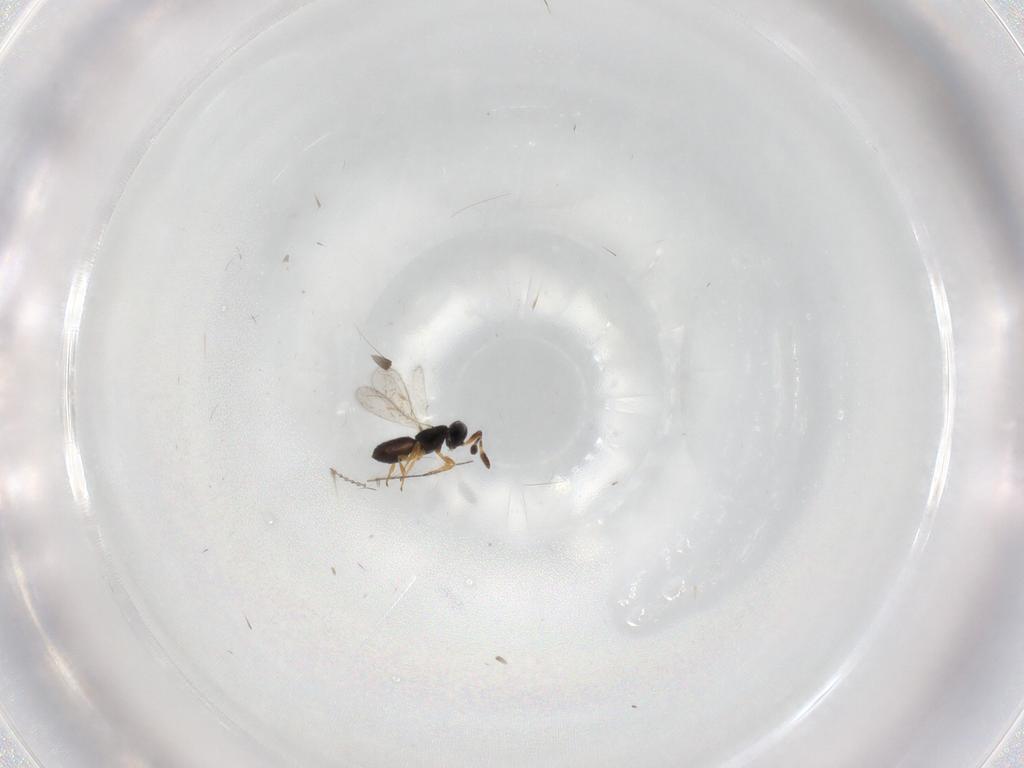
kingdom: Animalia
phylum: Arthropoda
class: Insecta
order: Hymenoptera
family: Scelionidae
